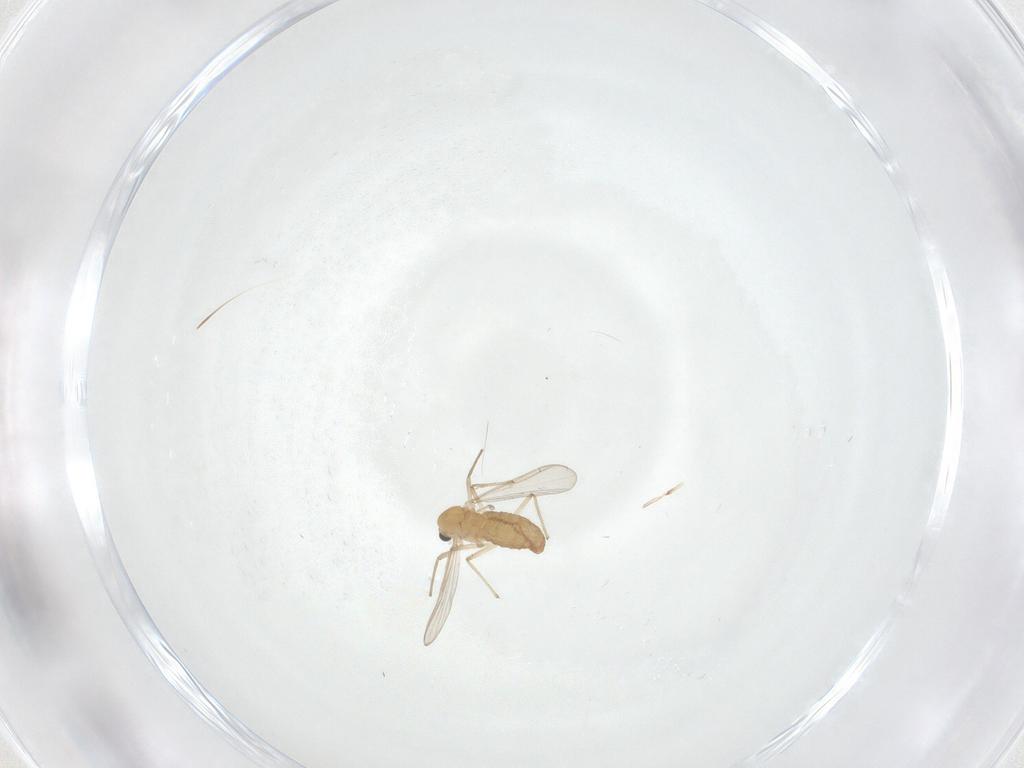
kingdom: Animalia
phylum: Arthropoda
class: Insecta
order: Diptera
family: Chironomidae
